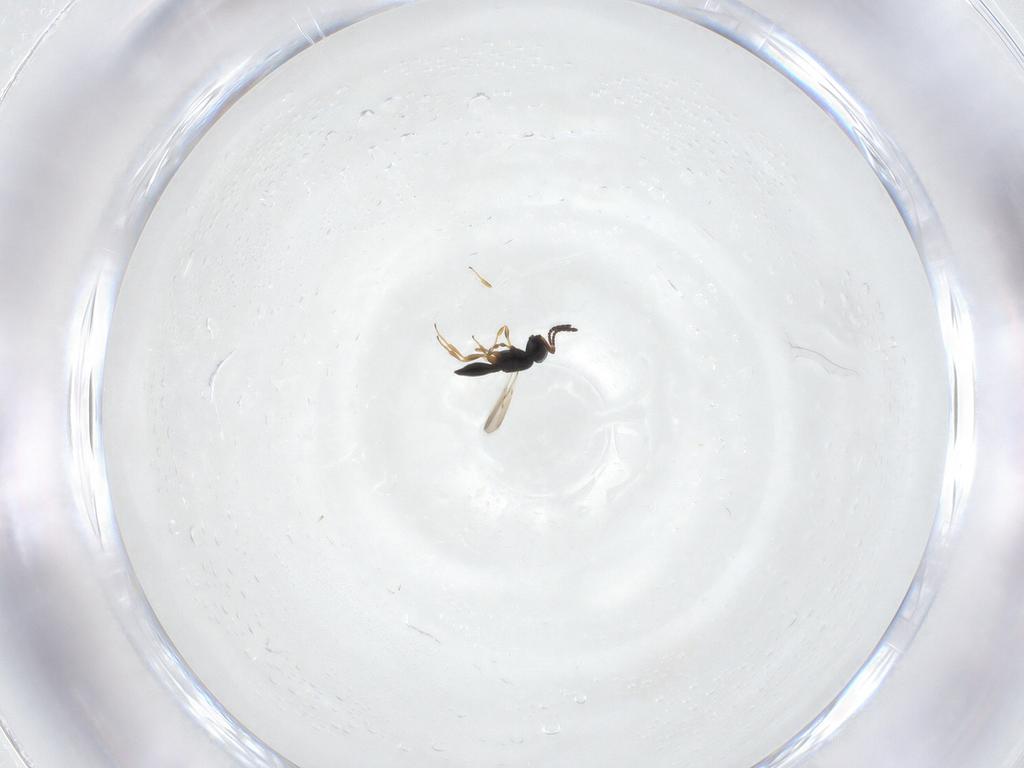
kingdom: Animalia
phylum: Arthropoda
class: Insecta
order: Hymenoptera
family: Scelionidae
